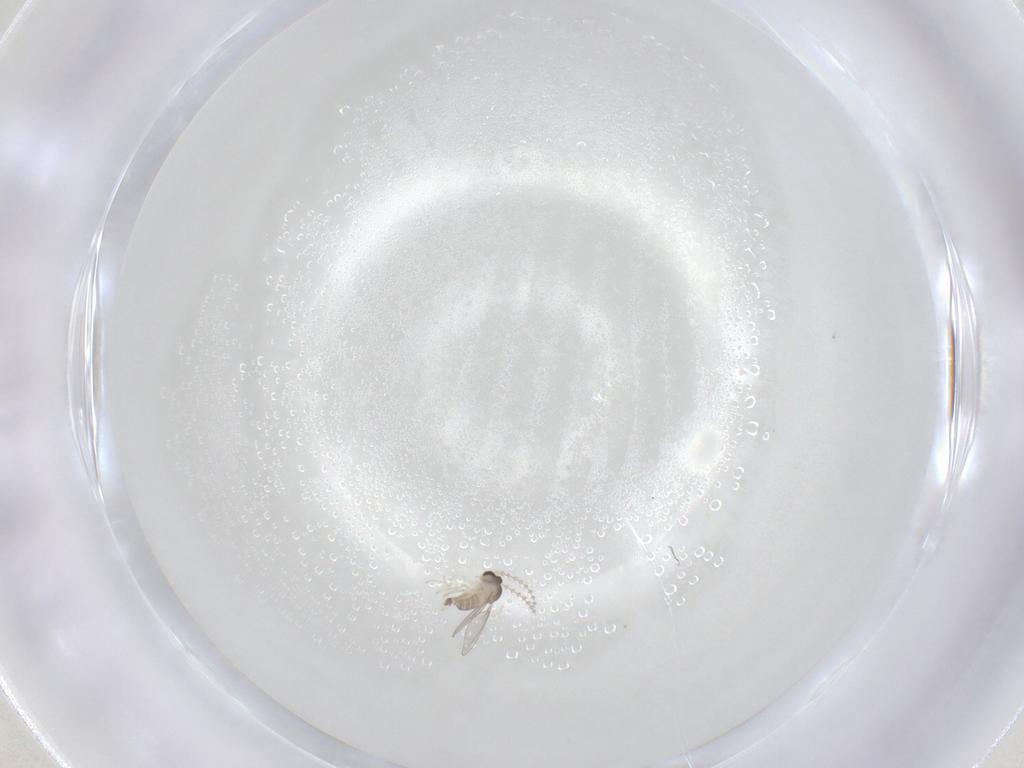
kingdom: Animalia
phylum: Arthropoda
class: Insecta
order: Diptera
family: Cecidomyiidae
